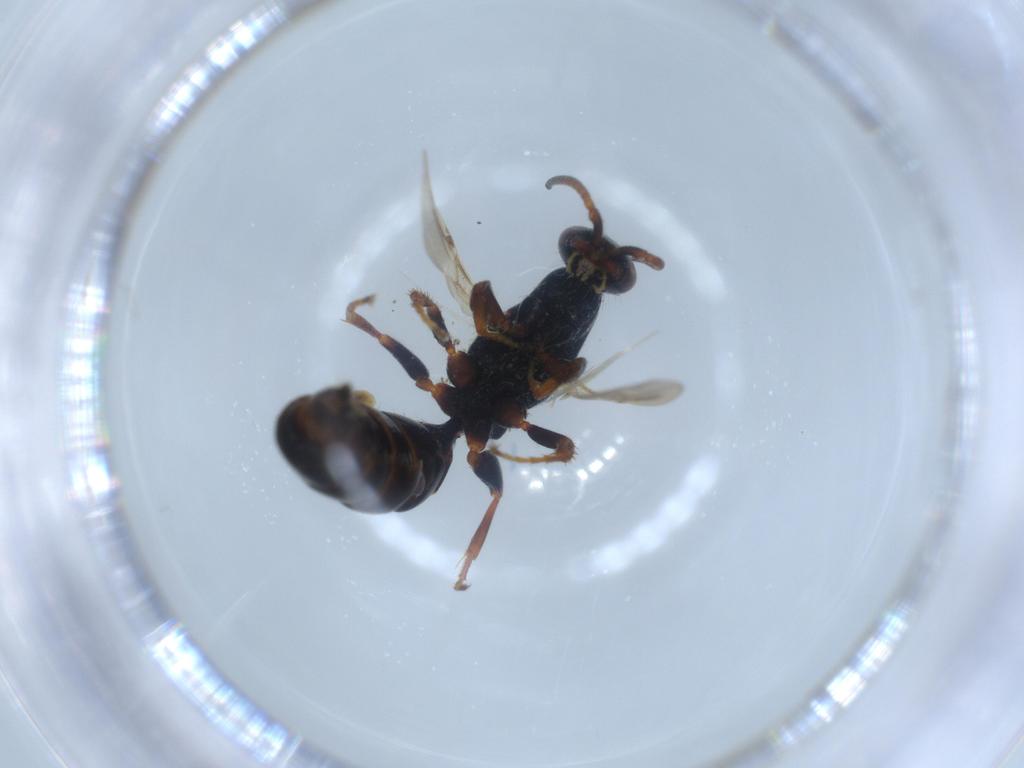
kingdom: Animalia
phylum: Arthropoda
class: Insecta
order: Hymenoptera
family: Bethylidae
